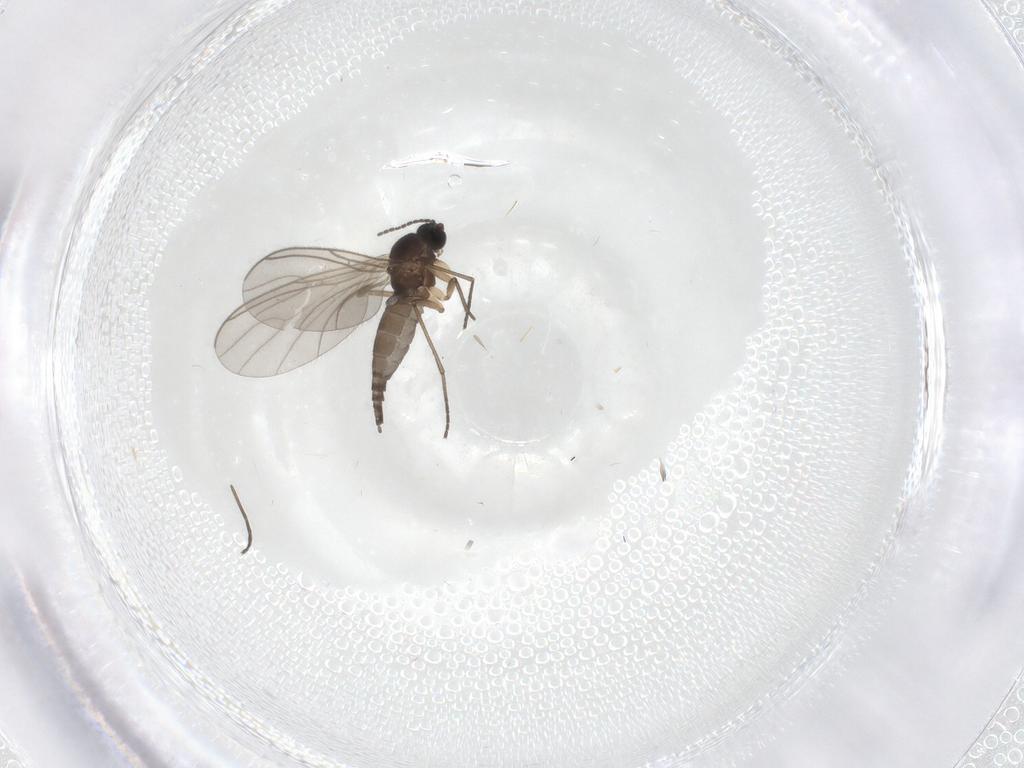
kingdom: Animalia
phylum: Arthropoda
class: Insecta
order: Diptera
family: Sciaridae
